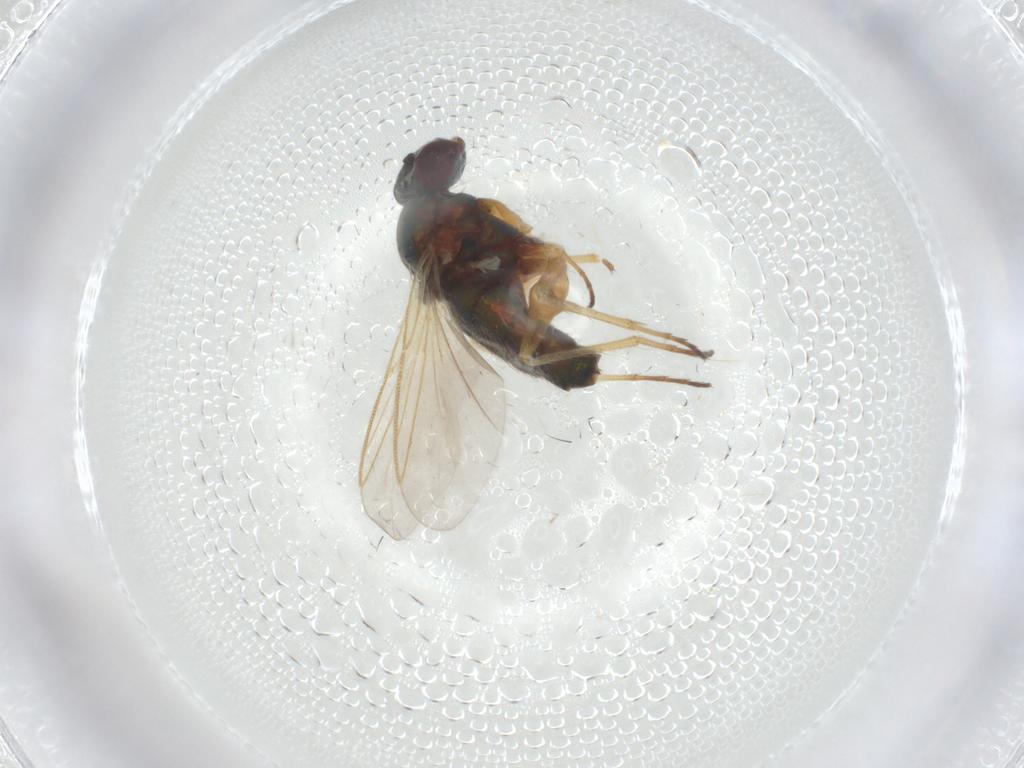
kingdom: Animalia
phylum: Arthropoda
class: Insecta
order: Diptera
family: Dolichopodidae
